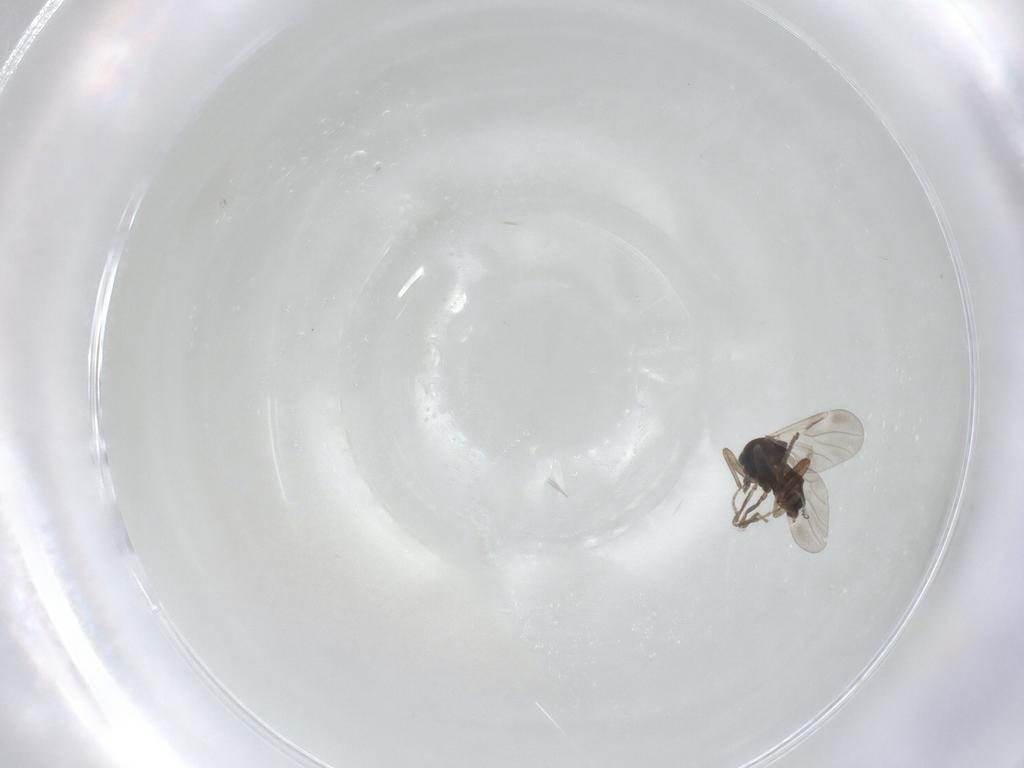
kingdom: Animalia
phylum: Arthropoda
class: Insecta
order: Diptera
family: Ceratopogonidae
